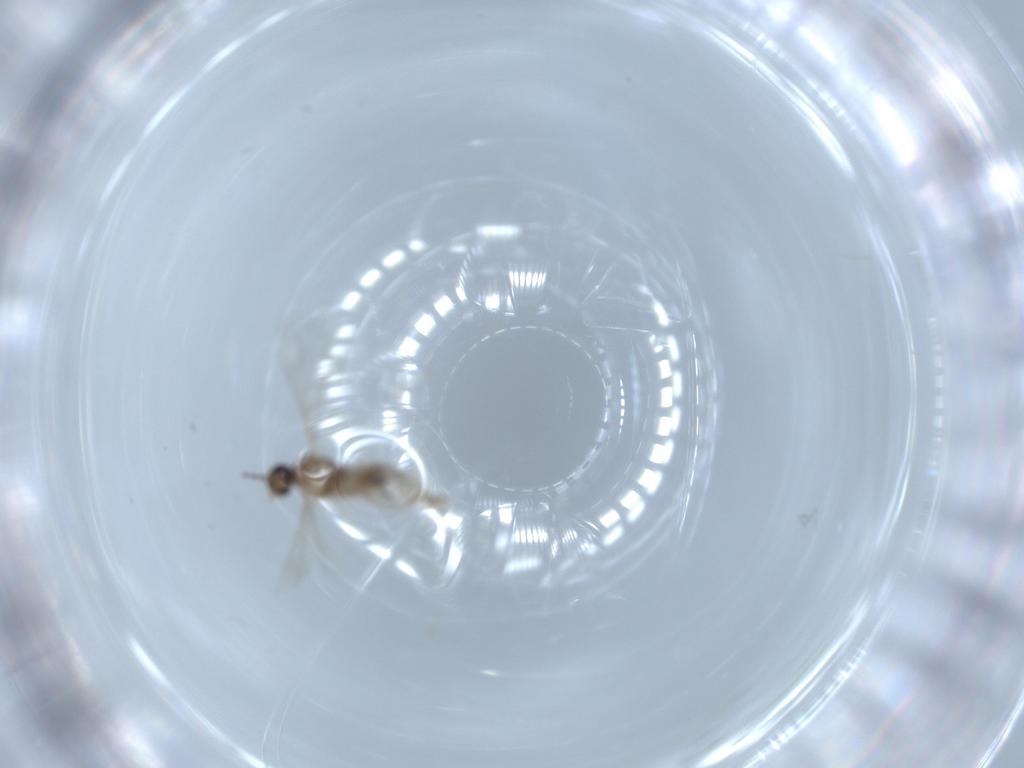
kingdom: Animalia
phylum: Arthropoda
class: Insecta
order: Diptera
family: Cecidomyiidae
